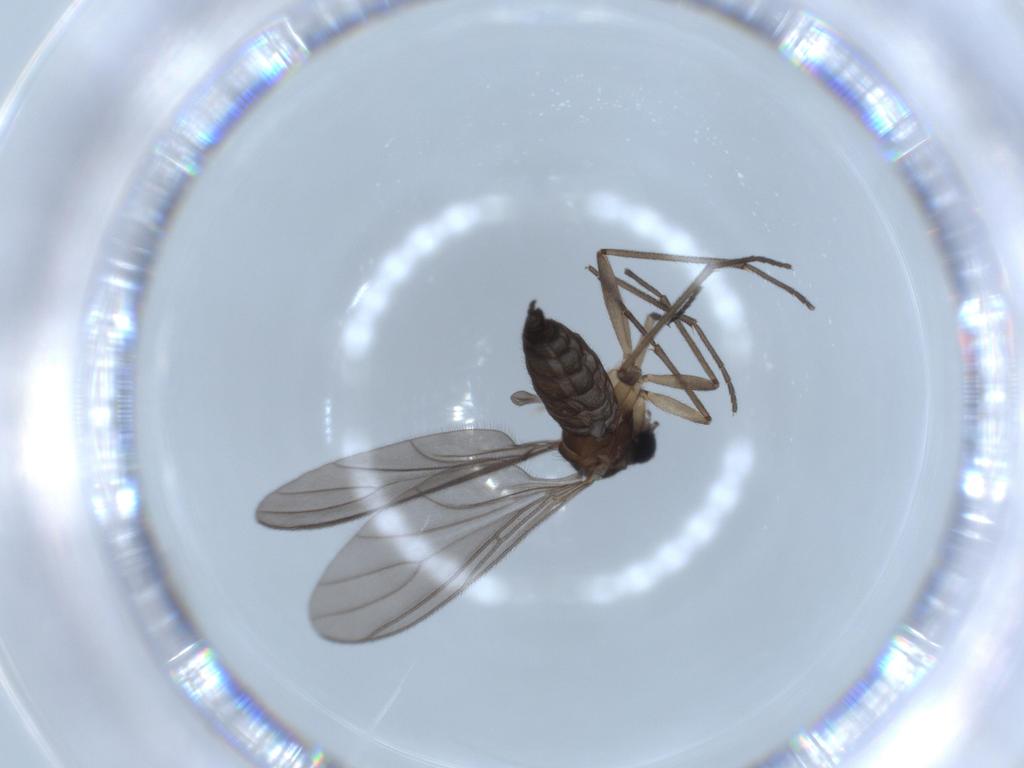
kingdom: Animalia
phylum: Arthropoda
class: Insecta
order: Diptera
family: Sciaridae
